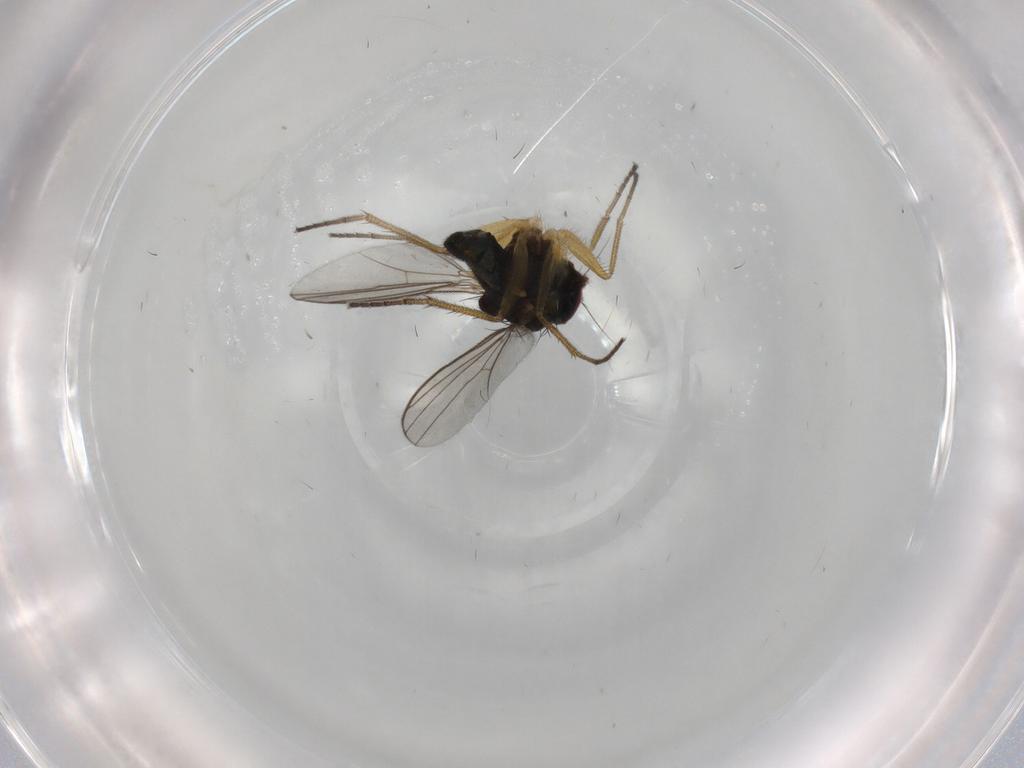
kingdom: Animalia
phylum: Arthropoda
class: Insecta
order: Diptera
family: Dolichopodidae
